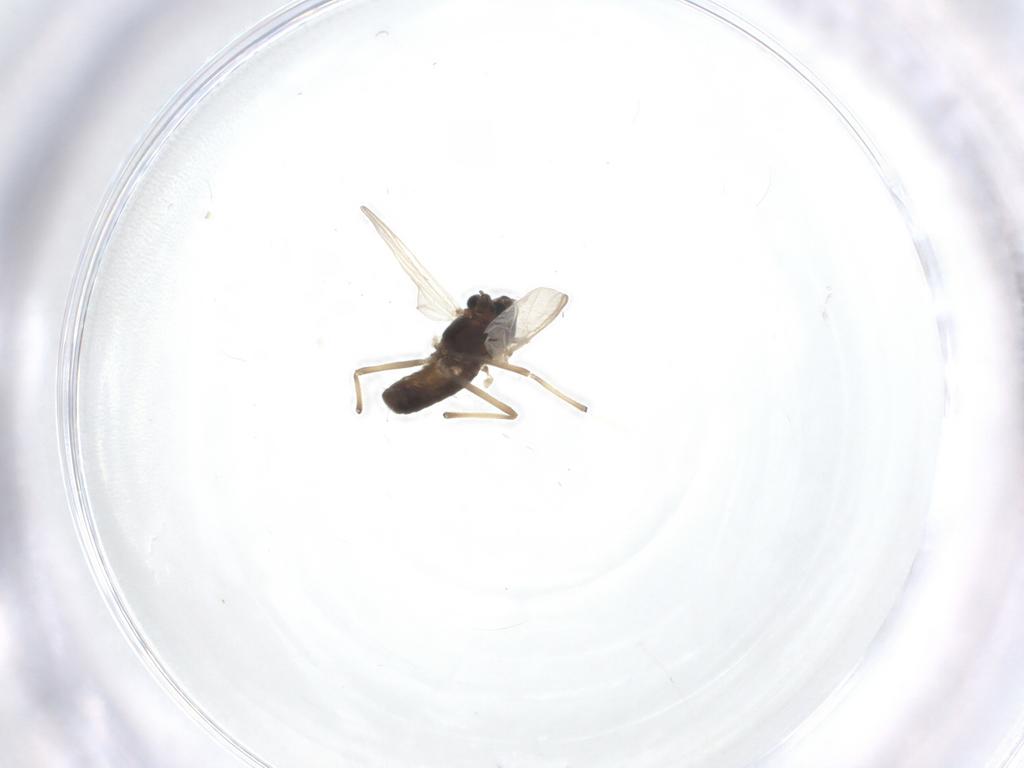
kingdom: Animalia
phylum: Arthropoda
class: Insecta
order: Diptera
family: Chironomidae
